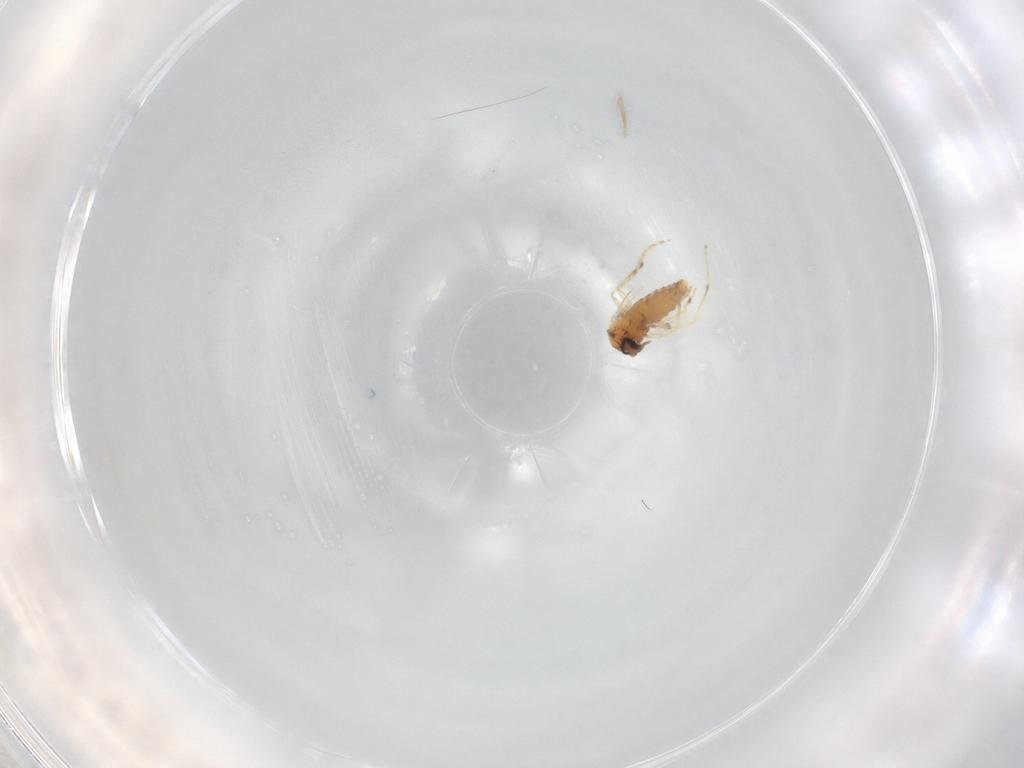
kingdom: Animalia
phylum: Arthropoda
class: Insecta
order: Diptera
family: Ceratopogonidae
